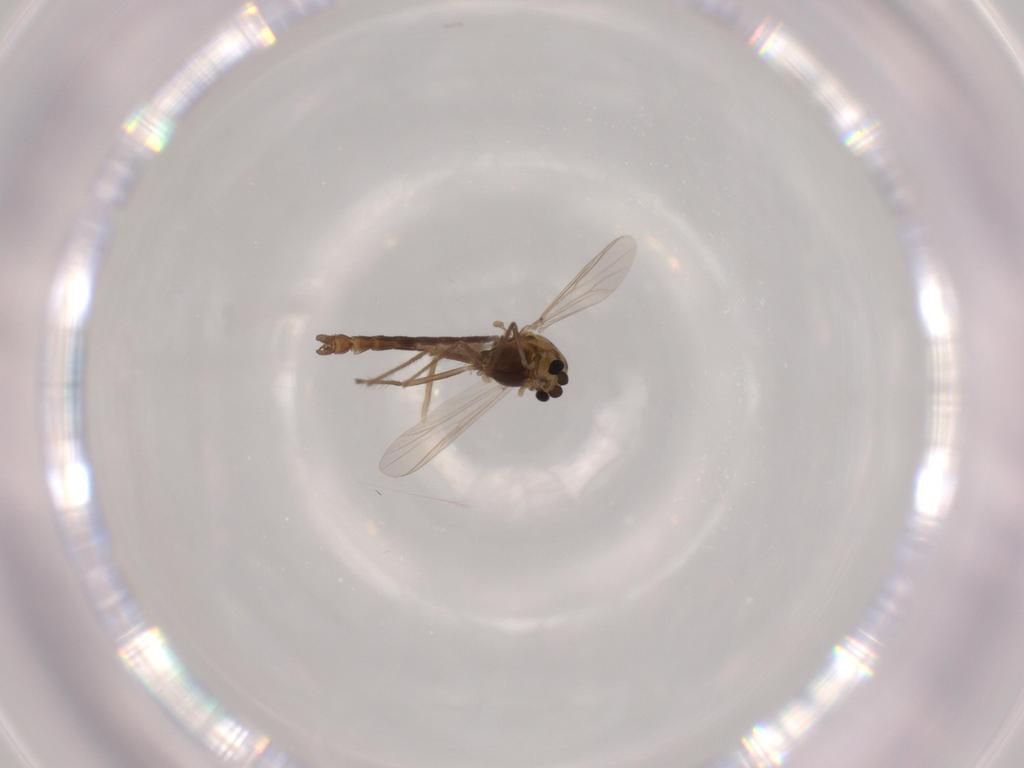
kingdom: Animalia
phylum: Arthropoda
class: Insecta
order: Diptera
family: Chironomidae
